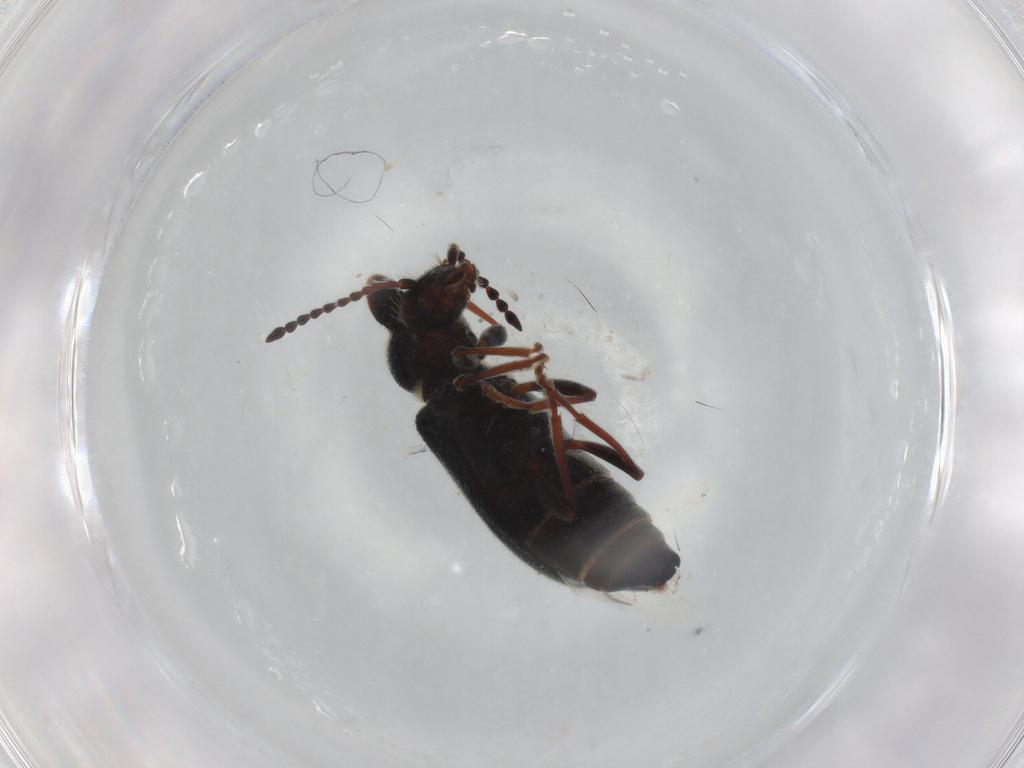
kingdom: Animalia
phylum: Arthropoda
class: Insecta
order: Coleoptera
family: Anthicidae
